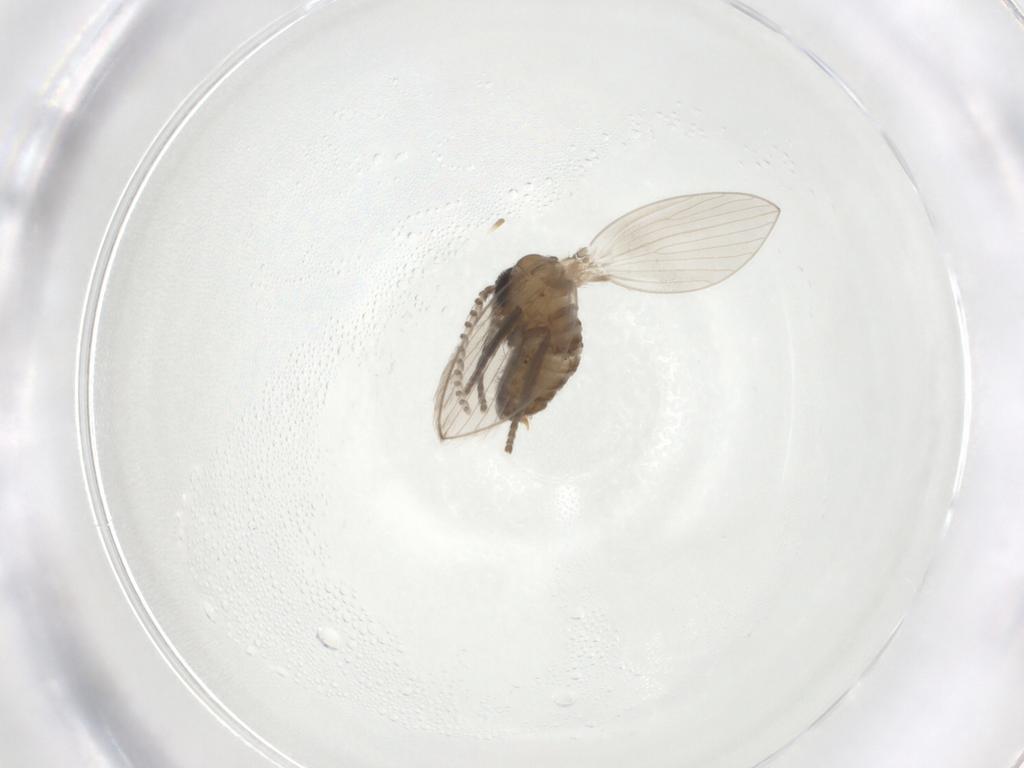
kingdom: Animalia
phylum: Arthropoda
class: Insecta
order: Diptera
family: Psychodidae
